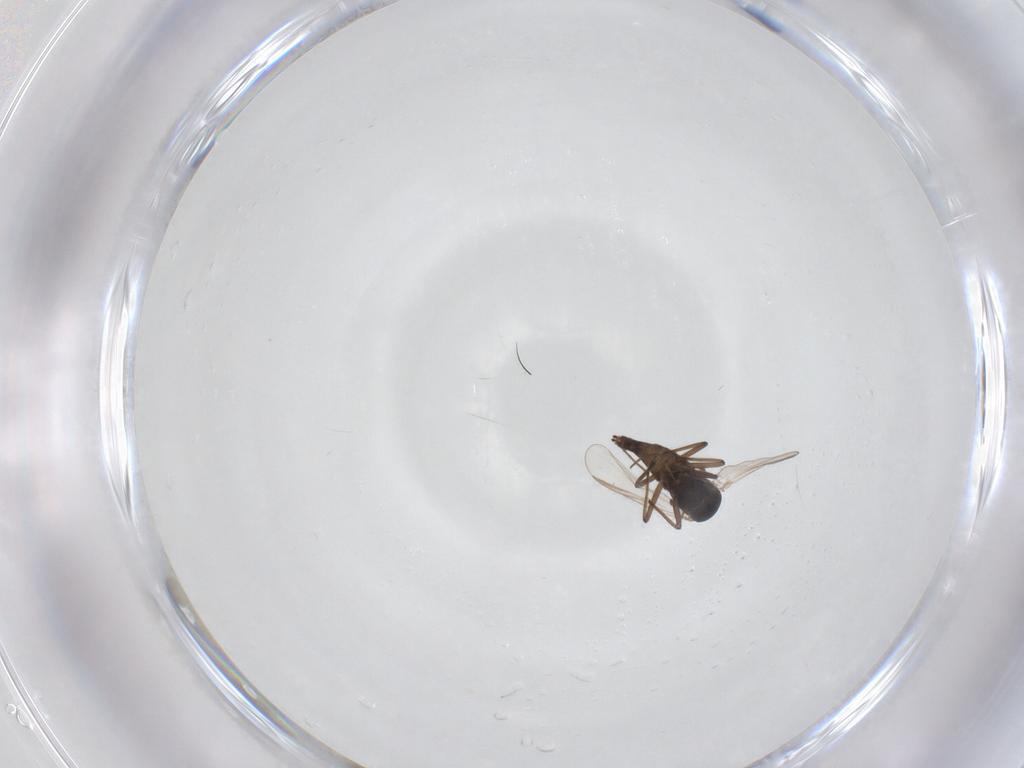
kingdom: Animalia
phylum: Arthropoda
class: Insecta
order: Diptera
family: Chironomidae
